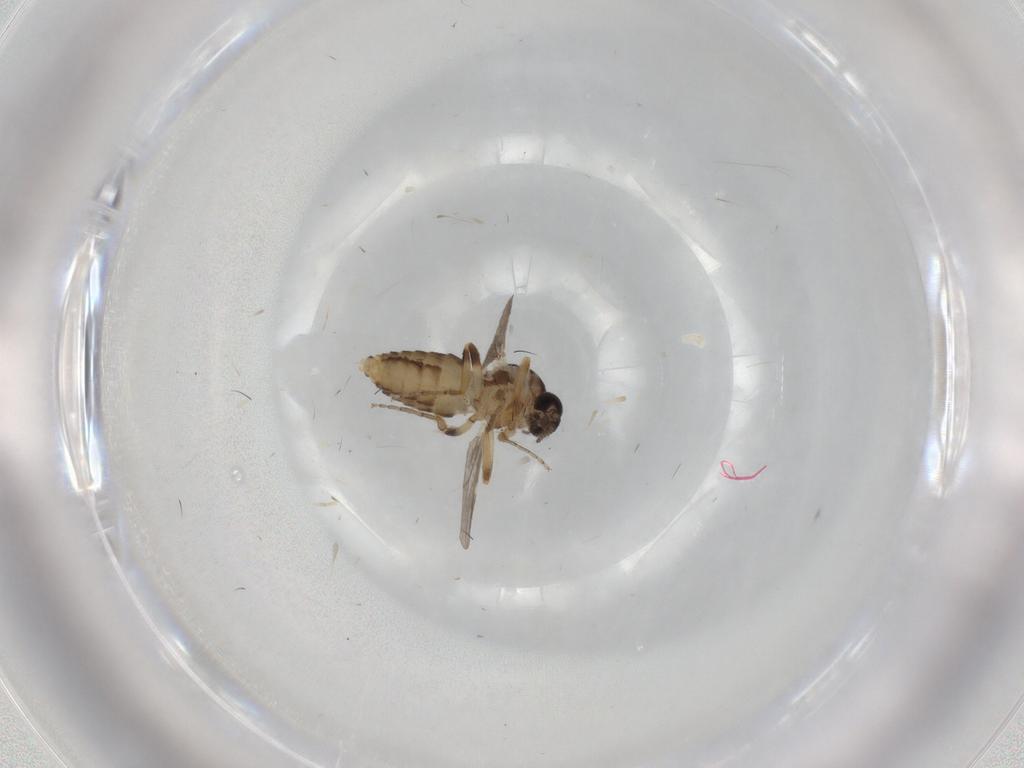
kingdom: Animalia
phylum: Arthropoda
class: Insecta
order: Diptera
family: Ceratopogonidae
